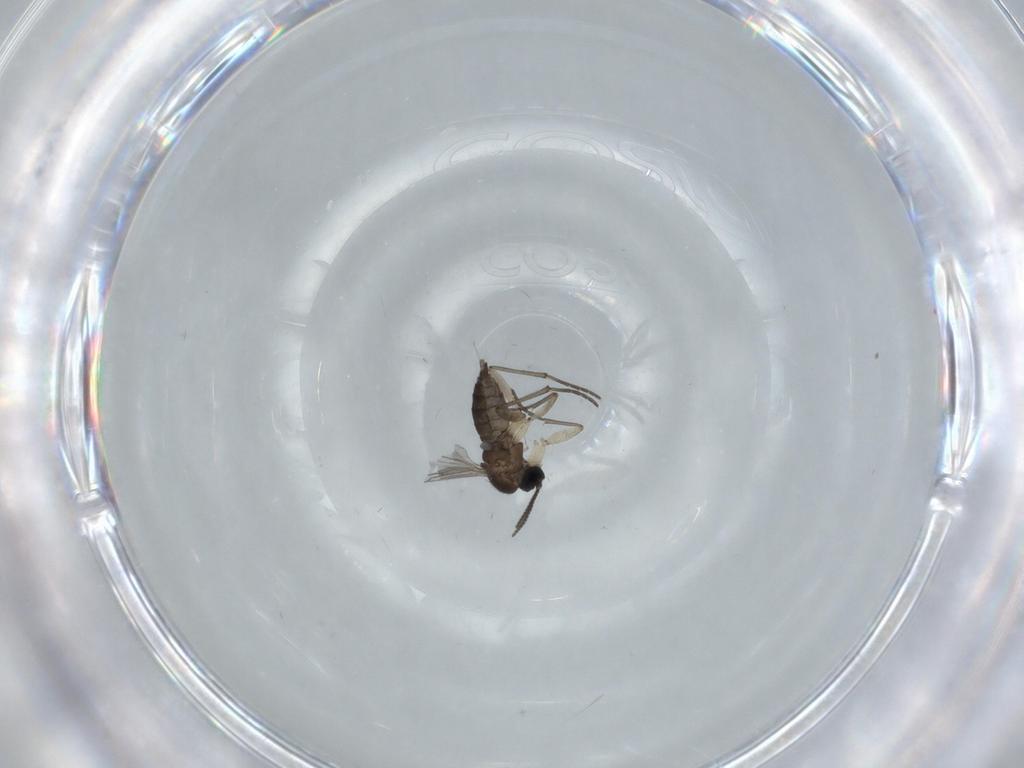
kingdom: Animalia
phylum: Arthropoda
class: Insecta
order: Diptera
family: Sciaridae
